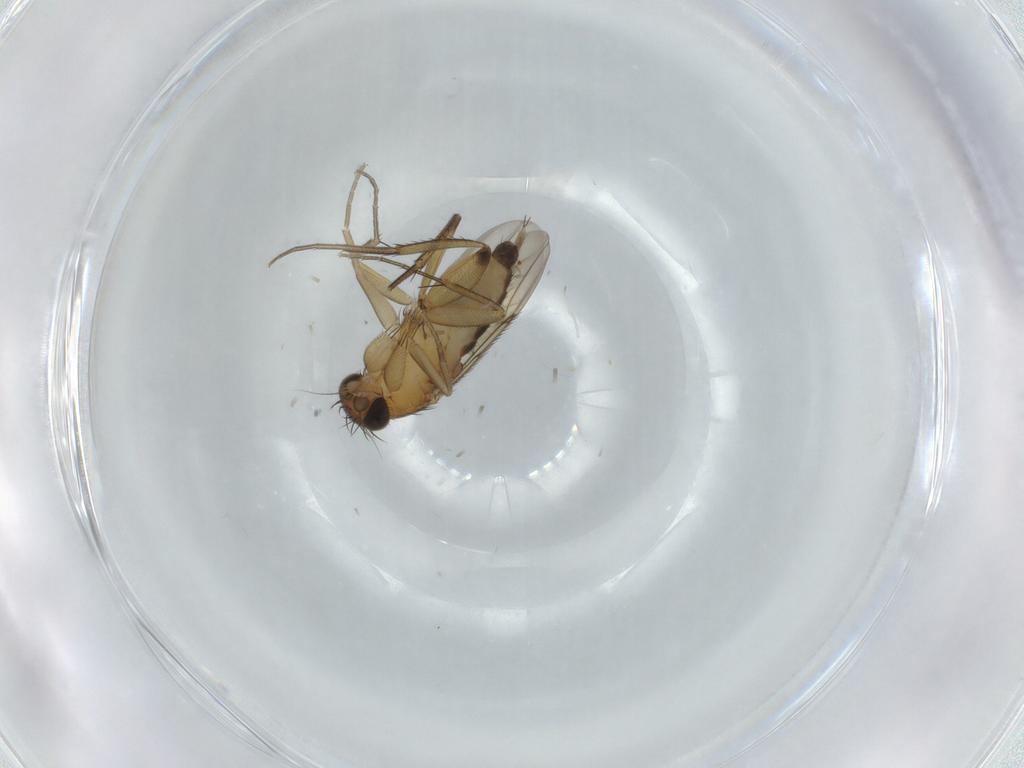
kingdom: Animalia
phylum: Arthropoda
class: Insecta
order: Diptera
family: Phoridae
